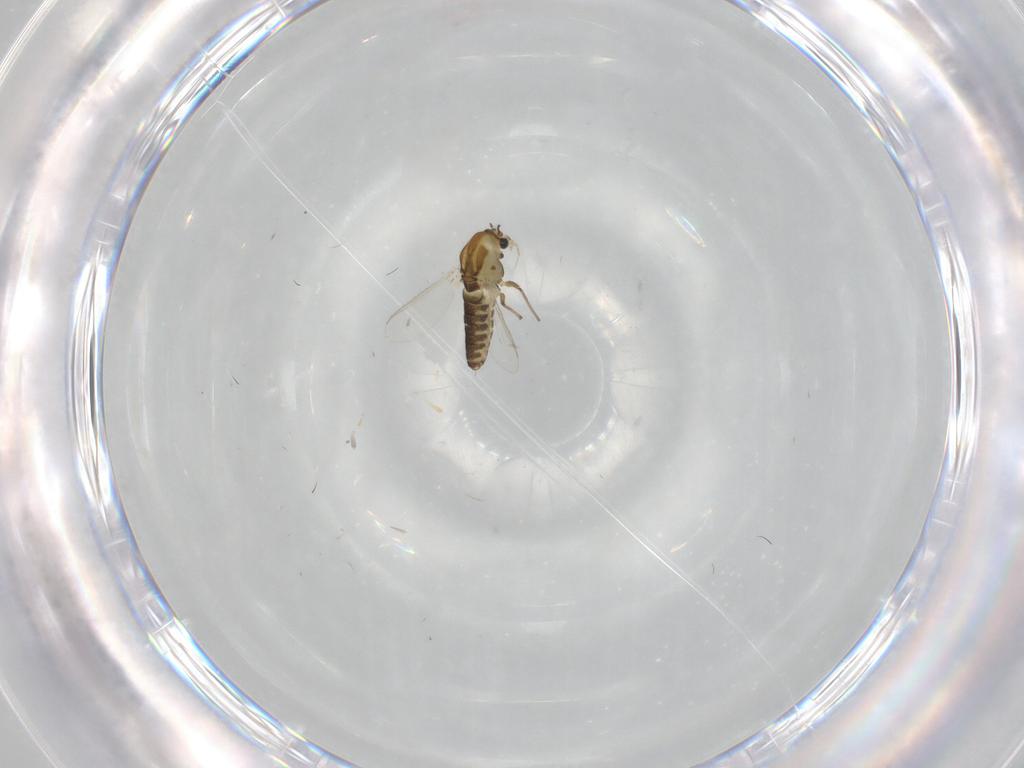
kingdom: Animalia
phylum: Arthropoda
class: Insecta
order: Diptera
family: Chironomidae
